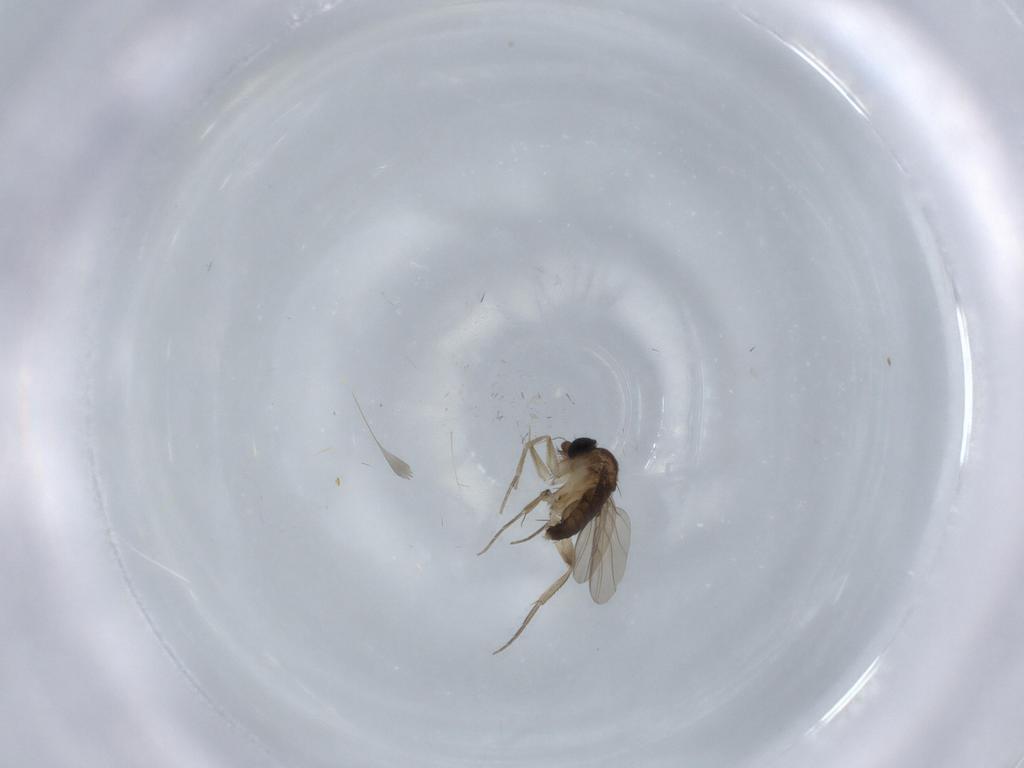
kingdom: Animalia
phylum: Arthropoda
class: Insecta
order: Diptera
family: Phoridae
